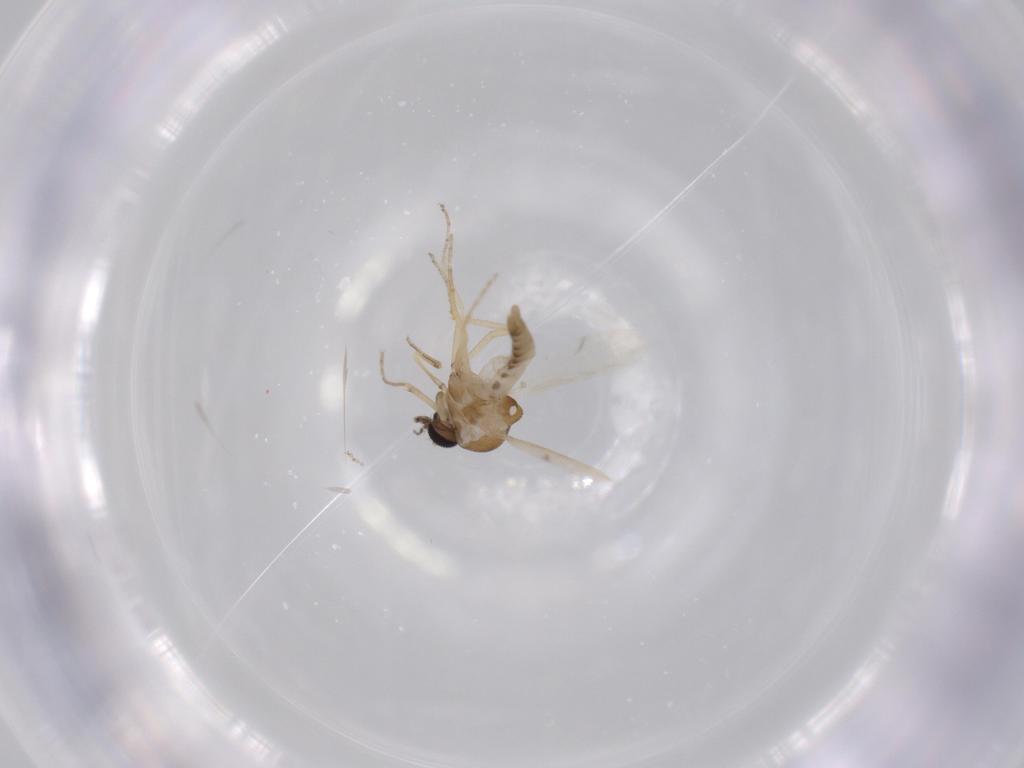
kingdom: Animalia
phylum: Arthropoda
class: Insecta
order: Diptera
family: Ceratopogonidae
